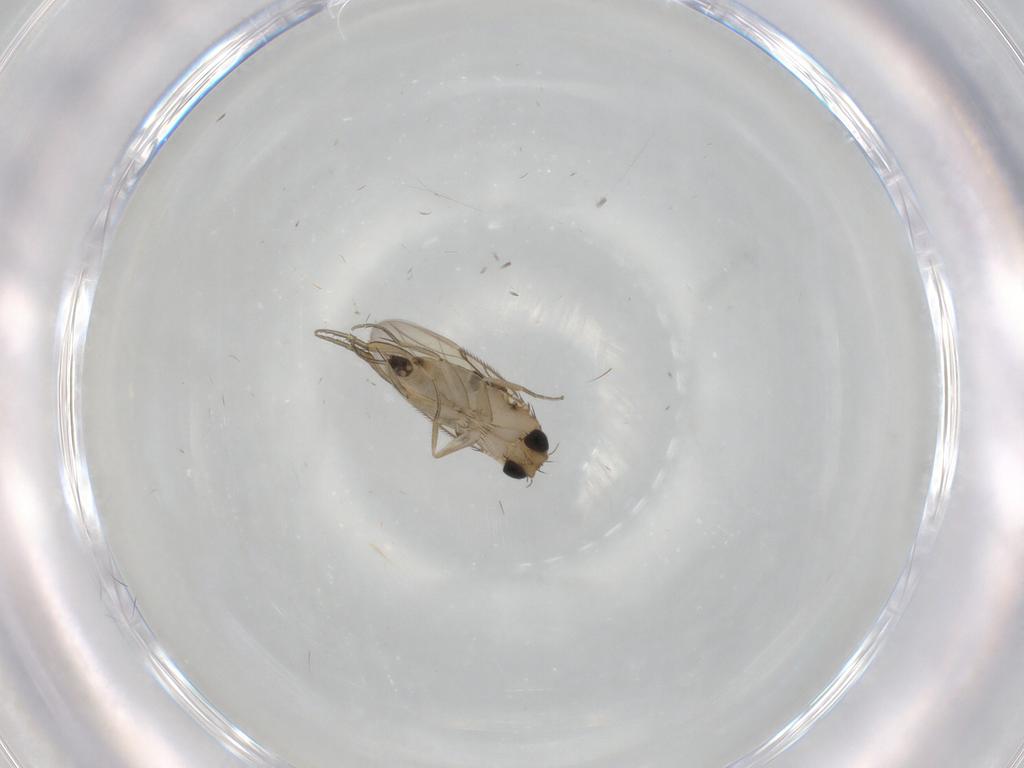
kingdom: Animalia
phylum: Arthropoda
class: Insecta
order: Diptera
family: Phoridae
